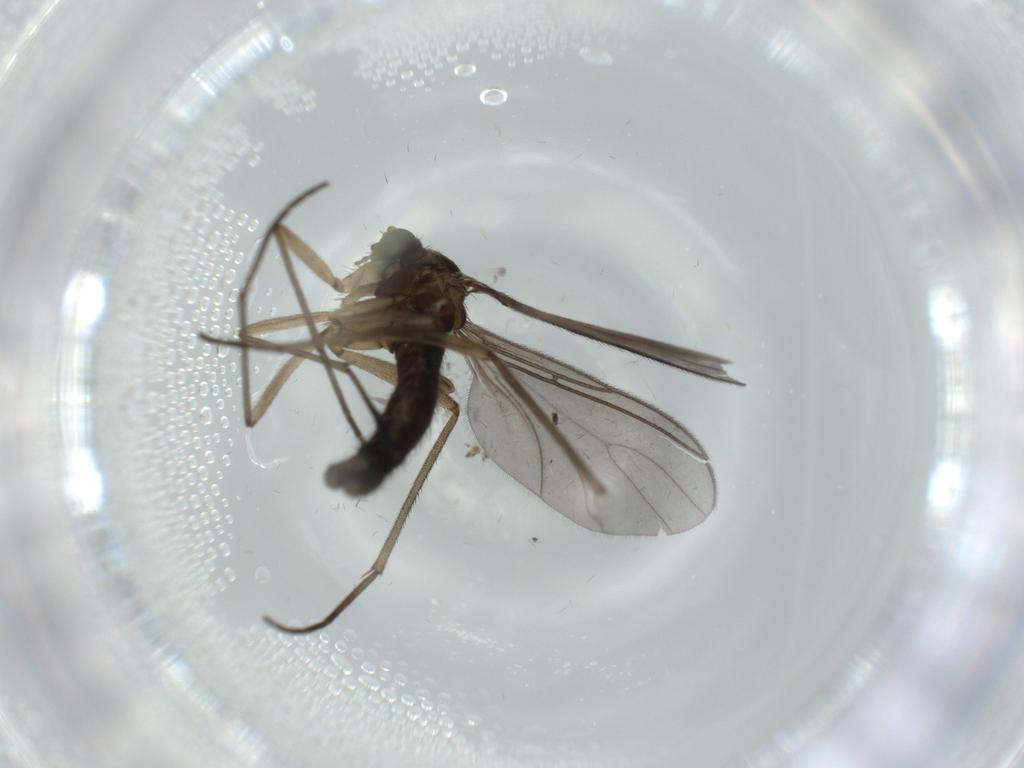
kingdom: Animalia
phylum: Arthropoda
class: Insecta
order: Diptera
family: Sciaridae
